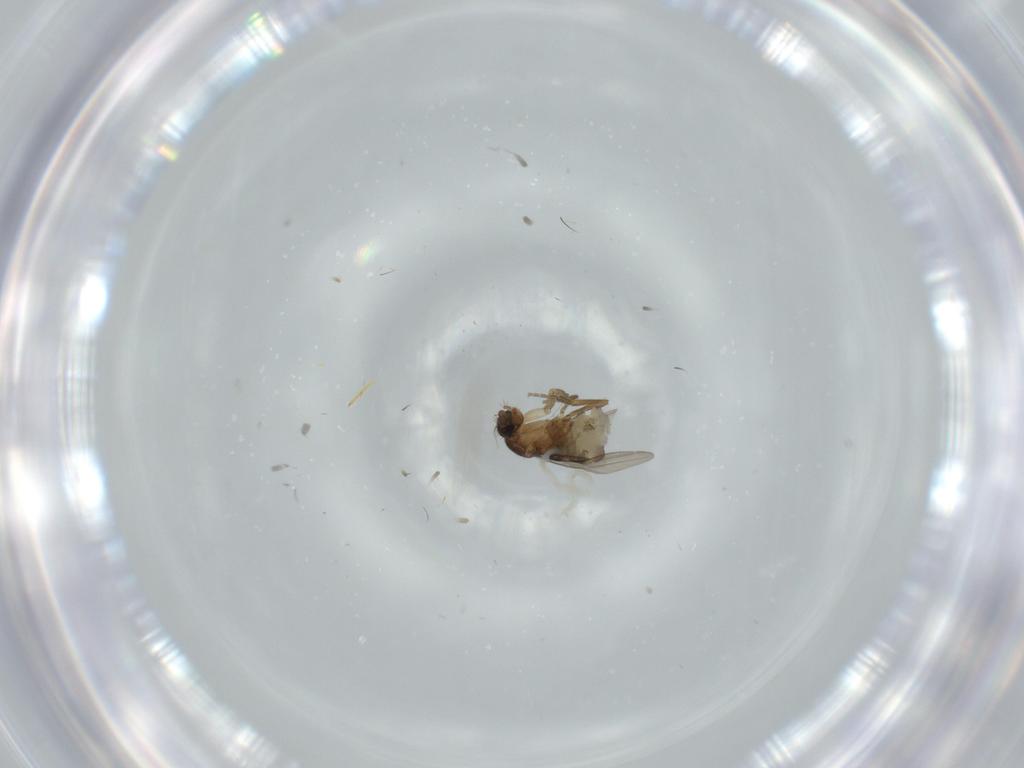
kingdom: Animalia
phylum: Arthropoda
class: Insecta
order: Diptera
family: Phoridae
